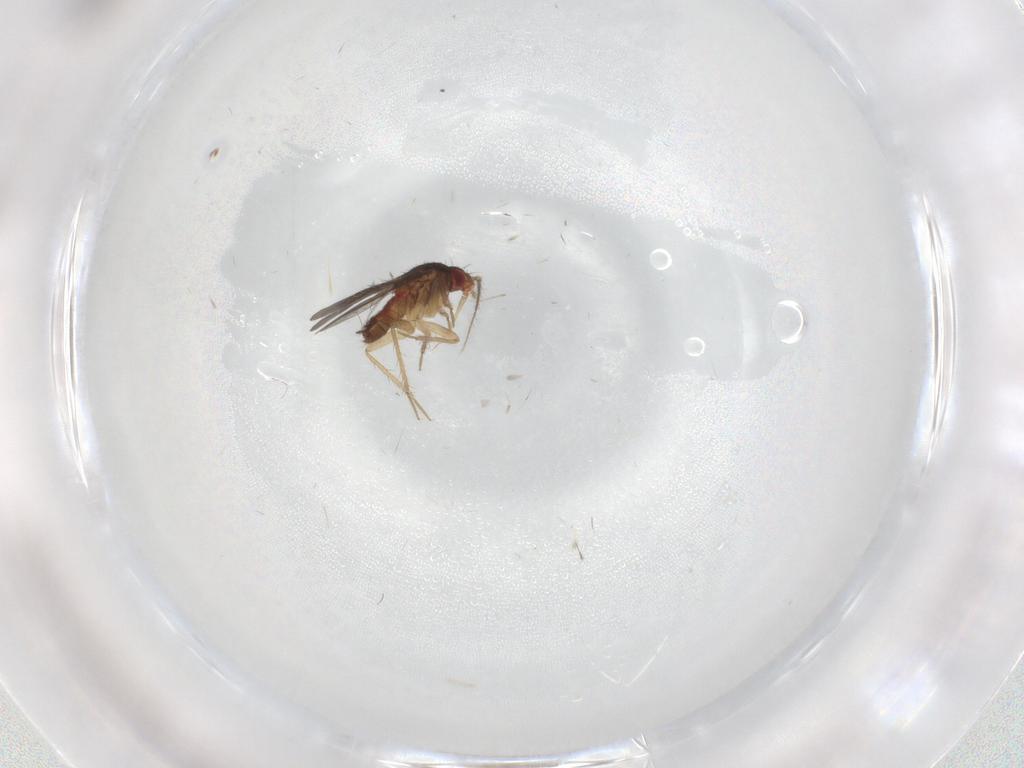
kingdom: Animalia
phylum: Arthropoda
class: Insecta
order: Hemiptera
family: Ceratocombidae
